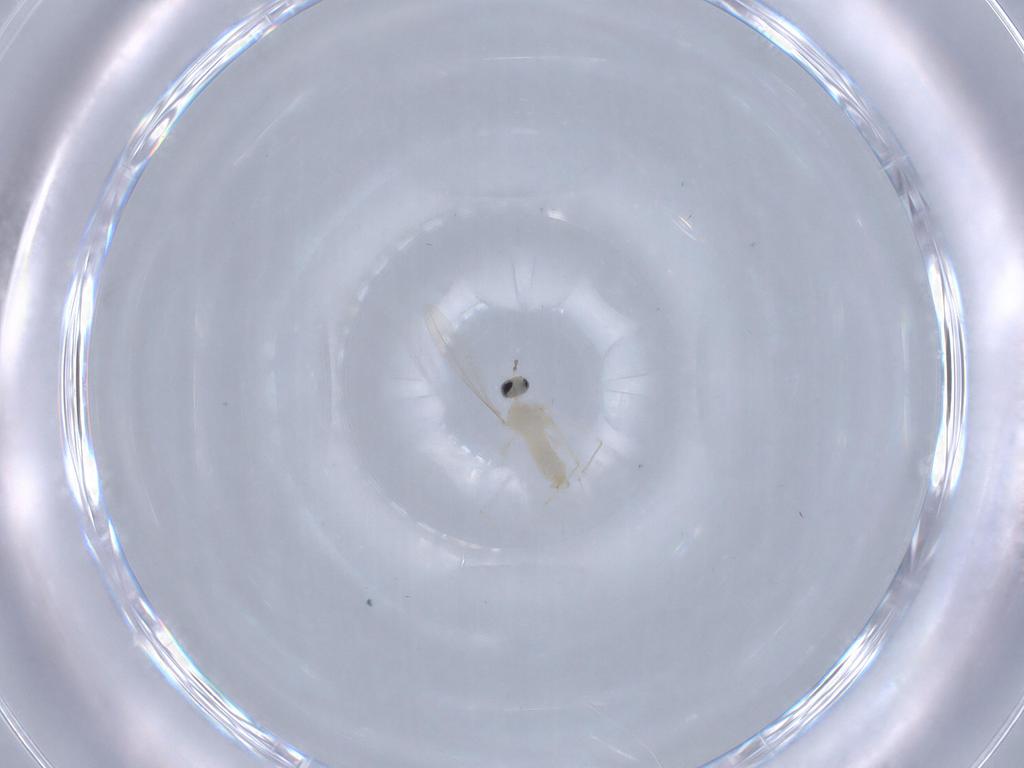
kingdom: Animalia
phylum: Arthropoda
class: Insecta
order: Diptera
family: Cecidomyiidae
